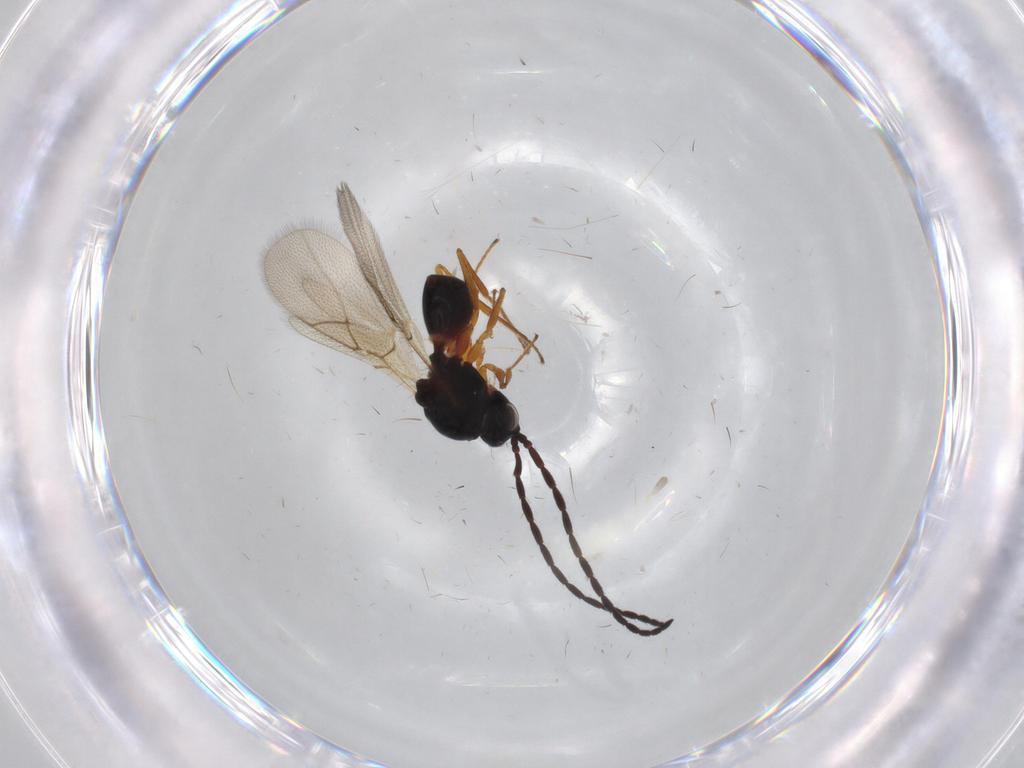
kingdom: Animalia
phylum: Arthropoda
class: Insecta
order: Hymenoptera
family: Figitidae
